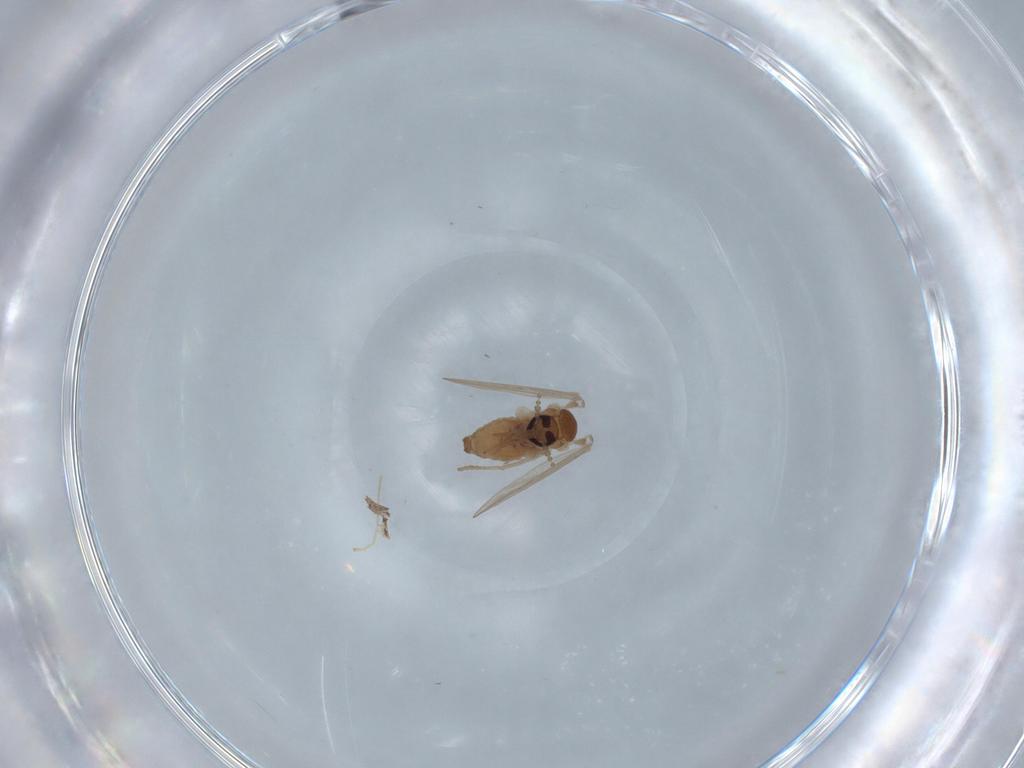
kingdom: Animalia
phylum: Arthropoda
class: Insecta
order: Diptera
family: Psychodidae
